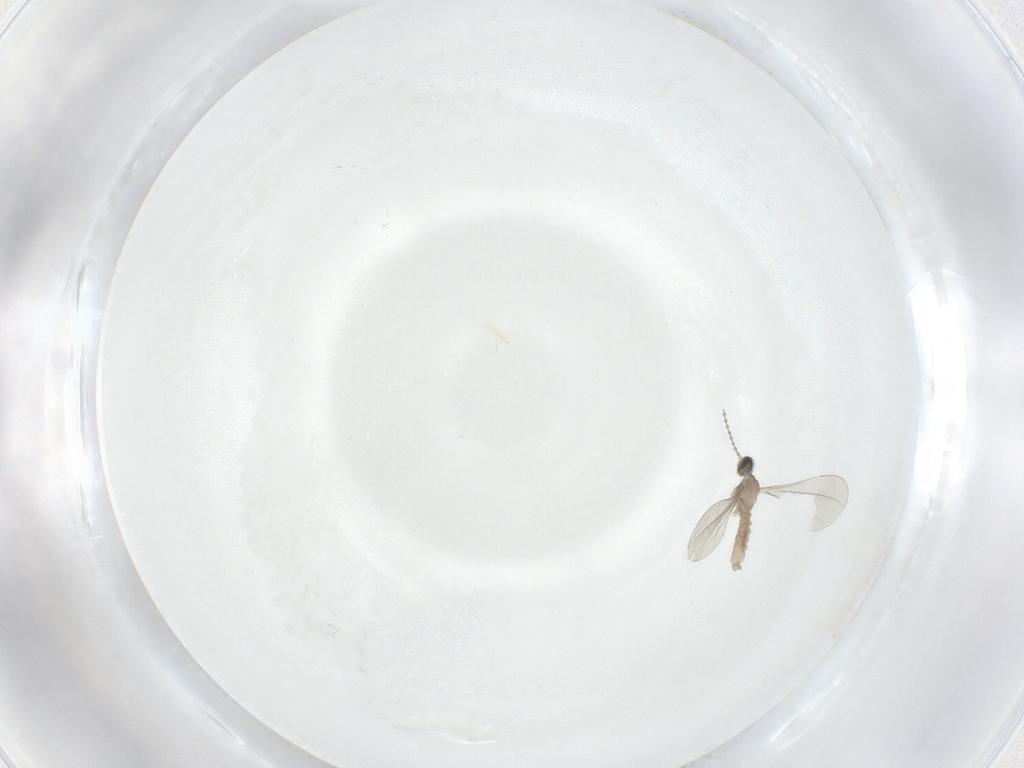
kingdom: Animalia
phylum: Arthropoda
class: Insecta
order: Diptera
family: Cecidomyiidae
